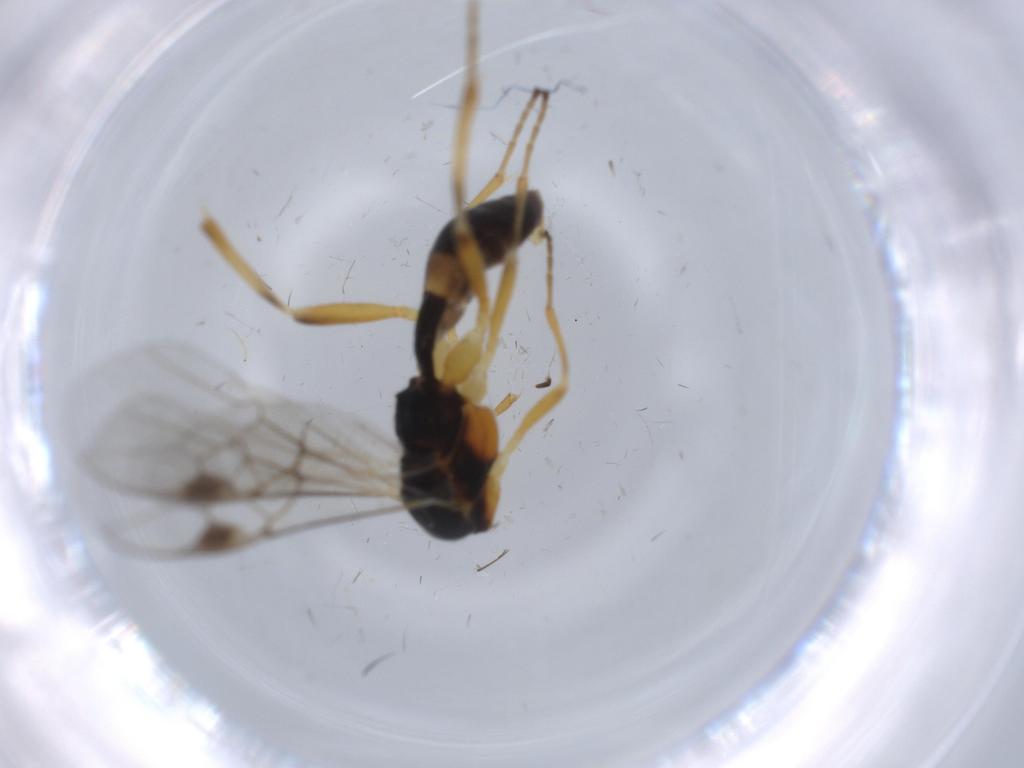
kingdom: Animalia
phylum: Arthropoda
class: Insecta
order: Hymenoptera
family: Braconidae
